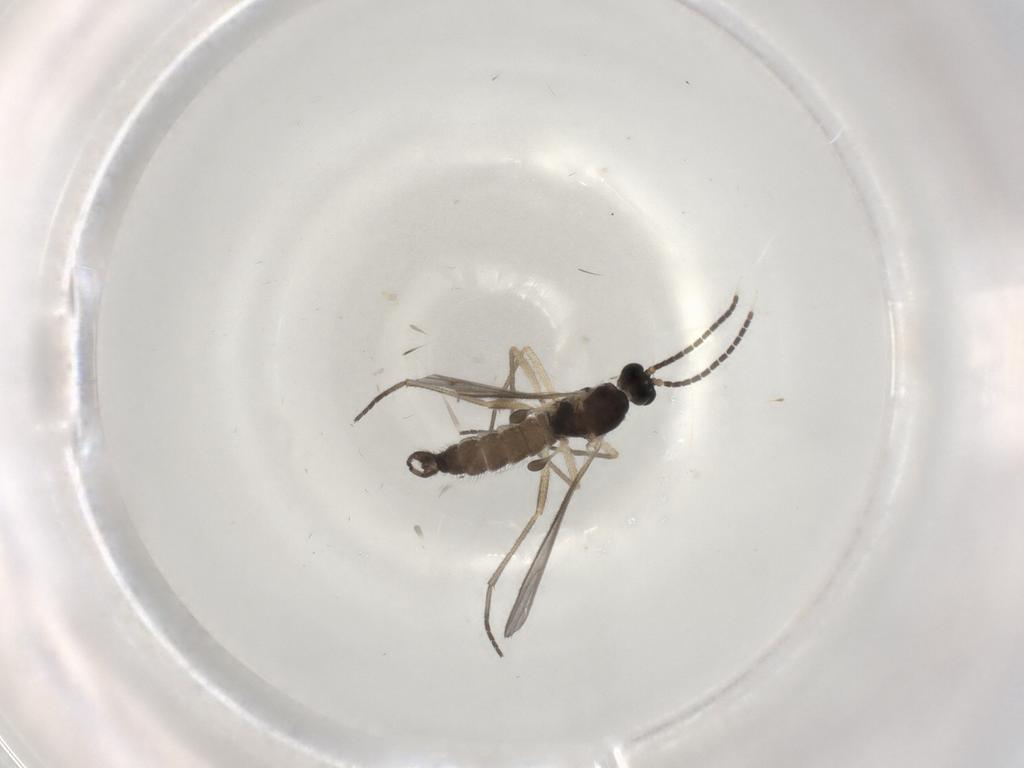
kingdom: Animalia
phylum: Arthropoda
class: Insecta
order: Diptera
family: Sciaridae
